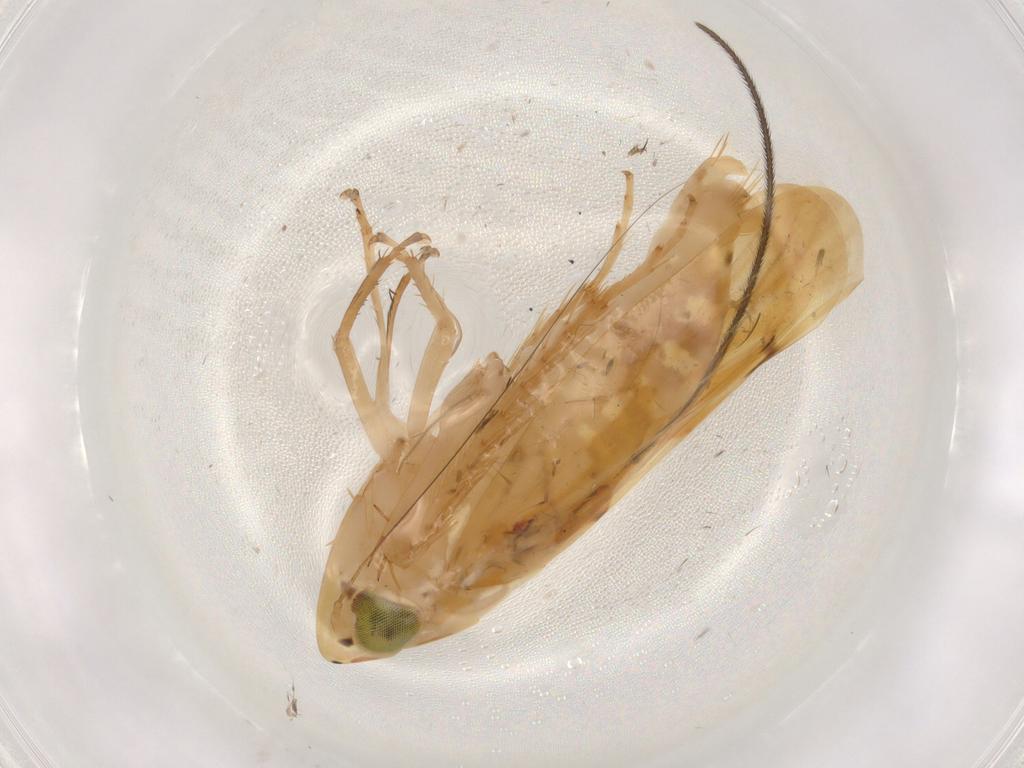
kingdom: Animalia
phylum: Arthropoda
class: Insecta
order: Hemiptera
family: Cicadellidae
